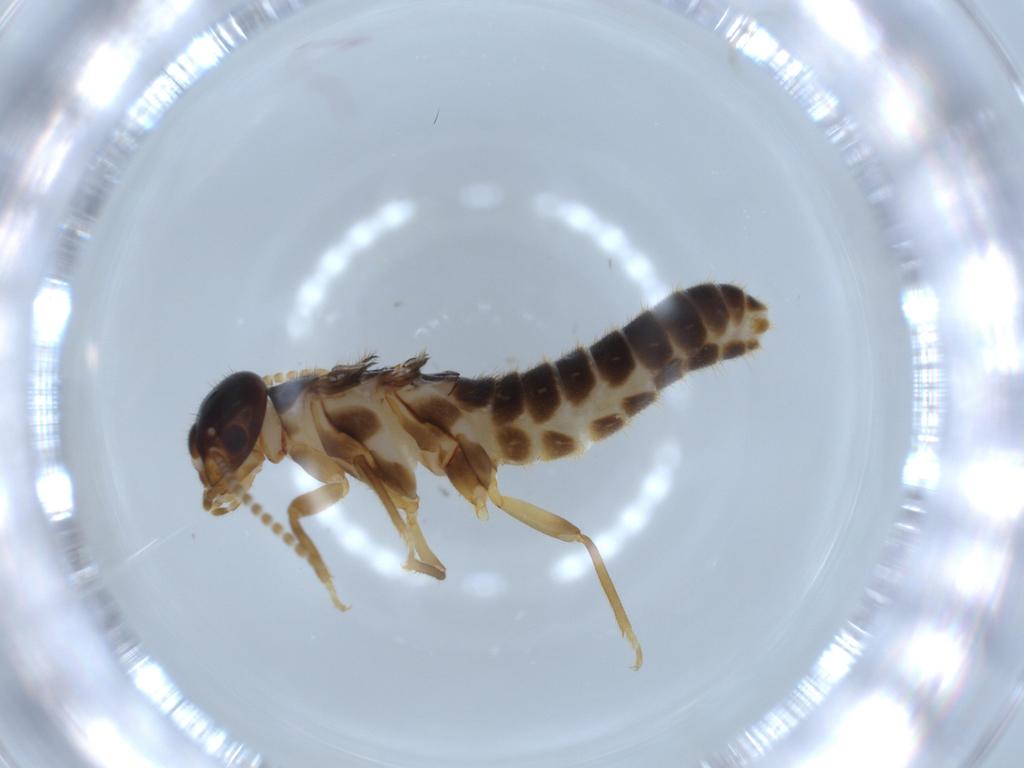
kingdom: Animalia
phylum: Arthropoda
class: Insecta
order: Blattodea
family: Termitidae
